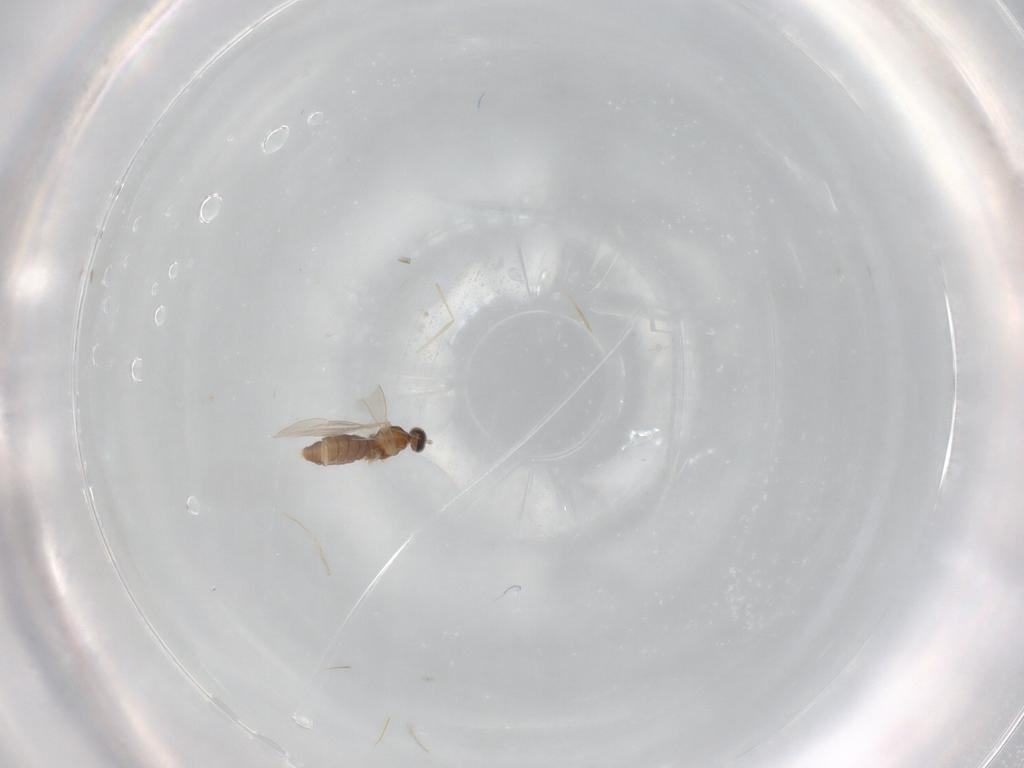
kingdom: Animalia
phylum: Arthropoda
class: Insecta
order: Diptera
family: Cecidomyiidae
